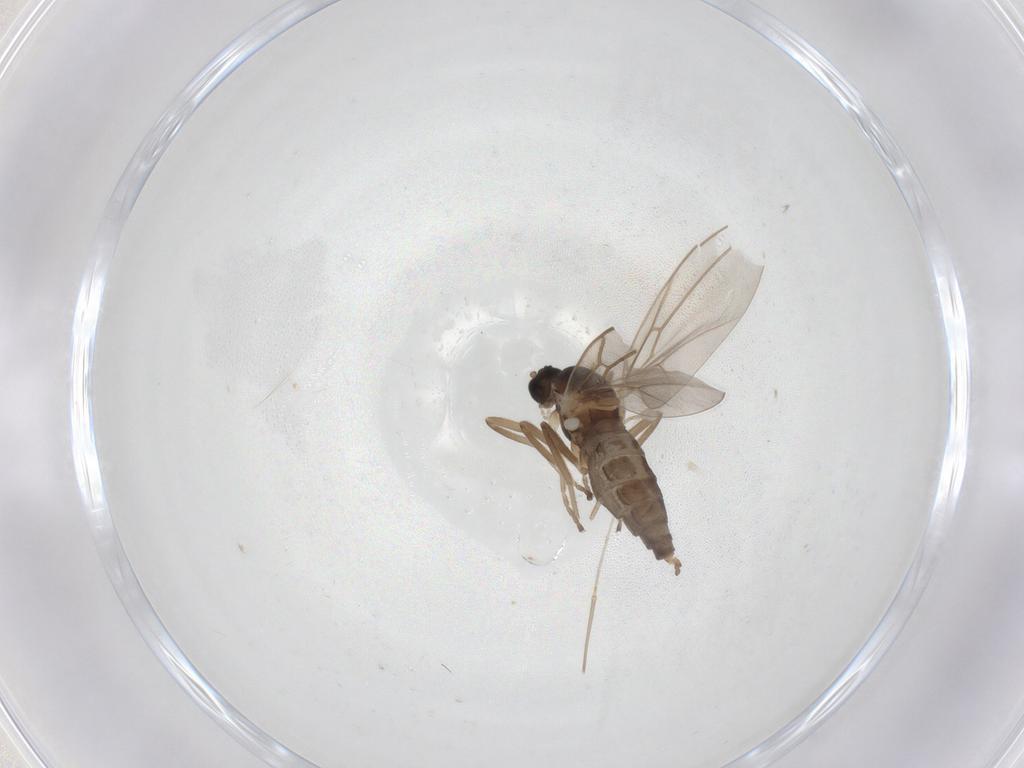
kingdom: Animalia
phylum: Arthropoda
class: Insecta
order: Diptera
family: Cecidomyiidae
